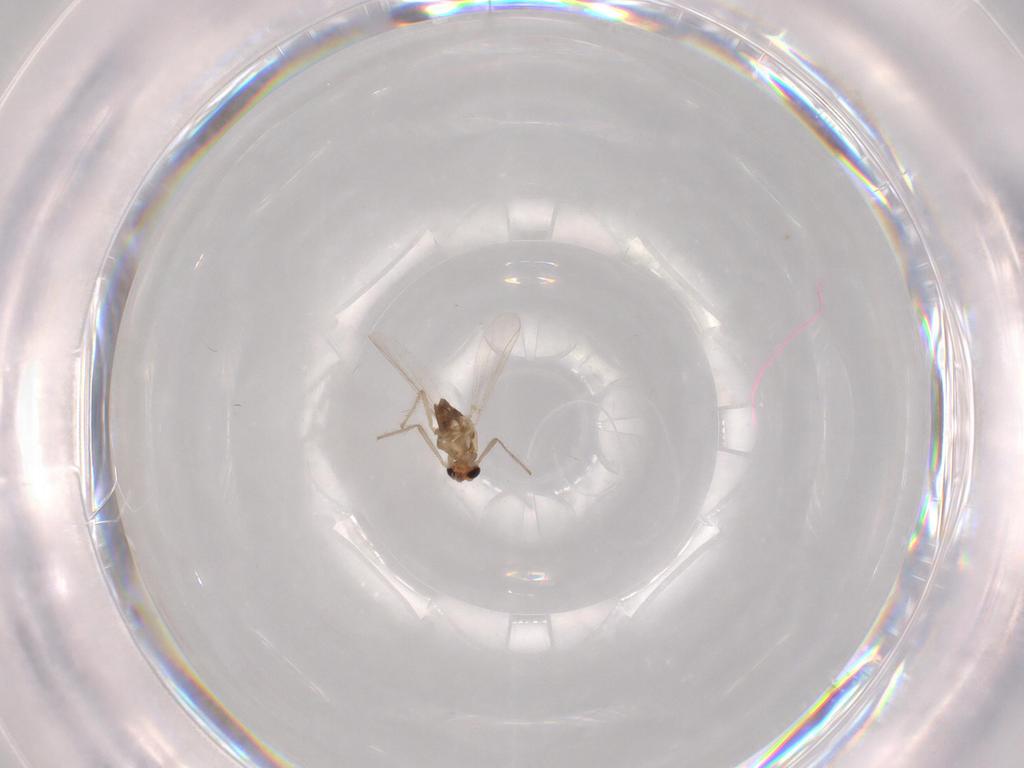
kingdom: Animalia
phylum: Arthropoda
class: Insecta
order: Diptera
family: Chironomidae
